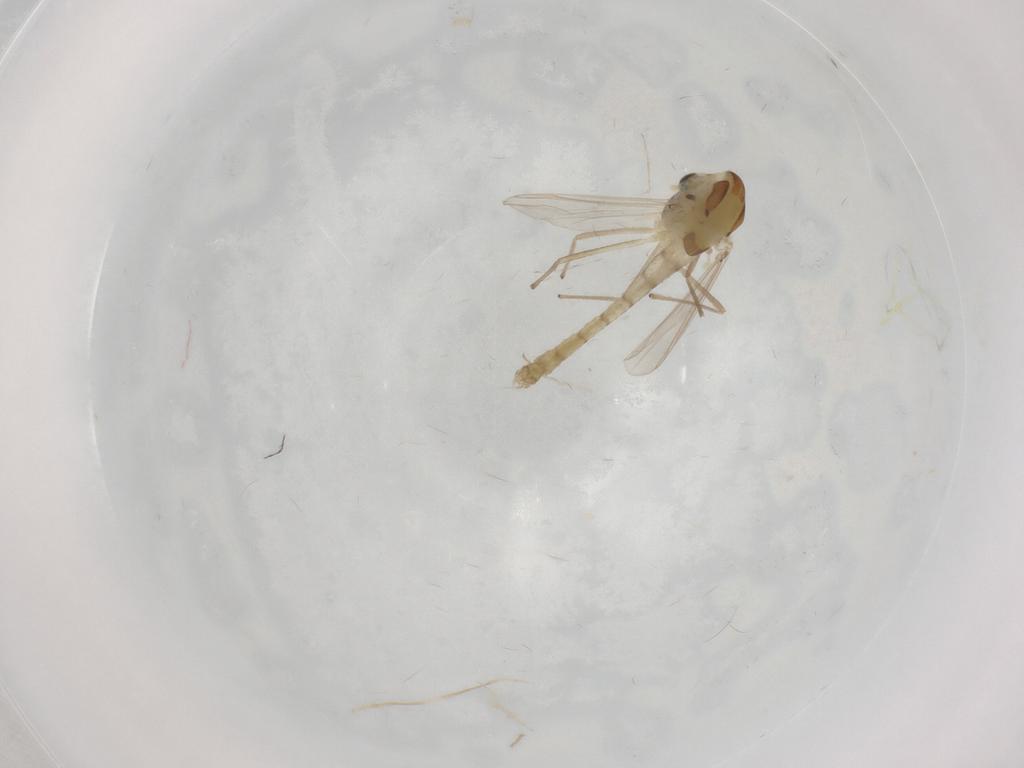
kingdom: Animalia
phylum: Arthropoda
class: Insecta
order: Diptera
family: Chironomidae
